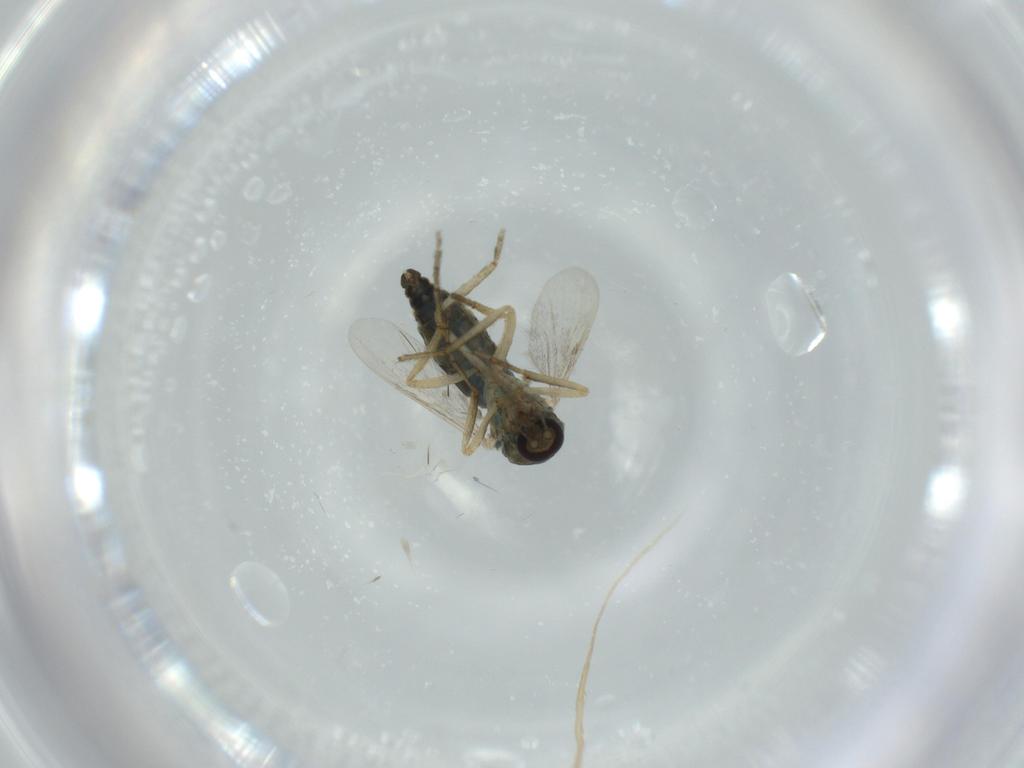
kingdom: Animalia
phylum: Arthropoda
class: Insecta
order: Diptera
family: Ceratopogonidae
